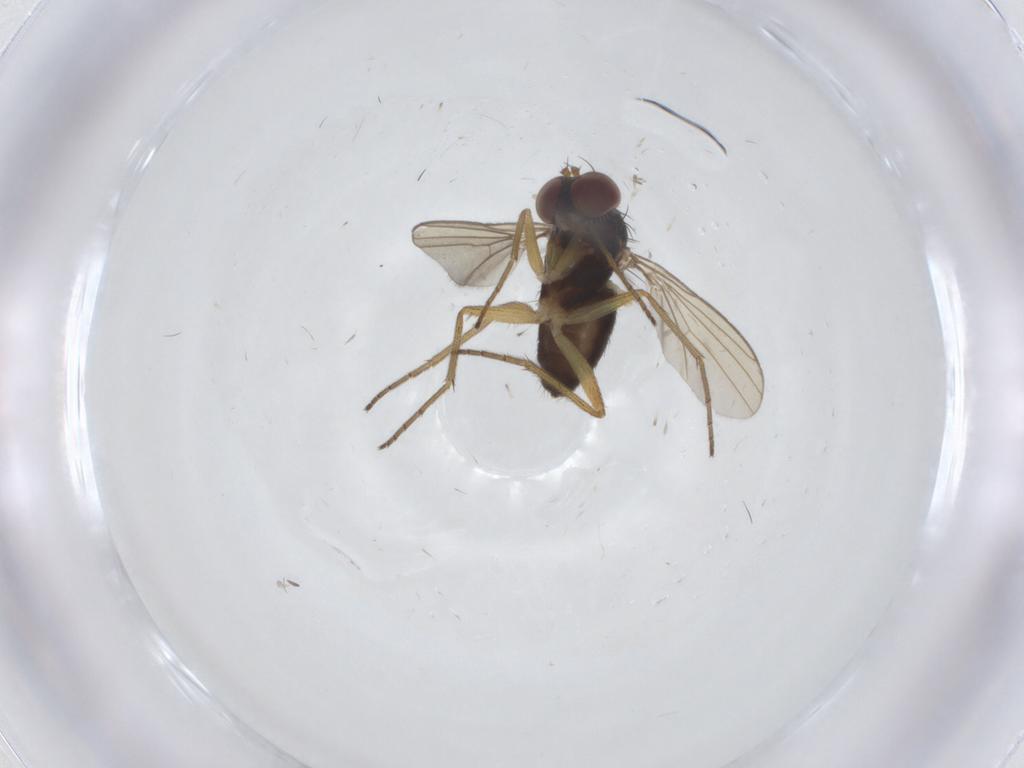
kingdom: Animalia
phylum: Arthropoda
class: Insecta
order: Diptera
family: Dolichopodidae
